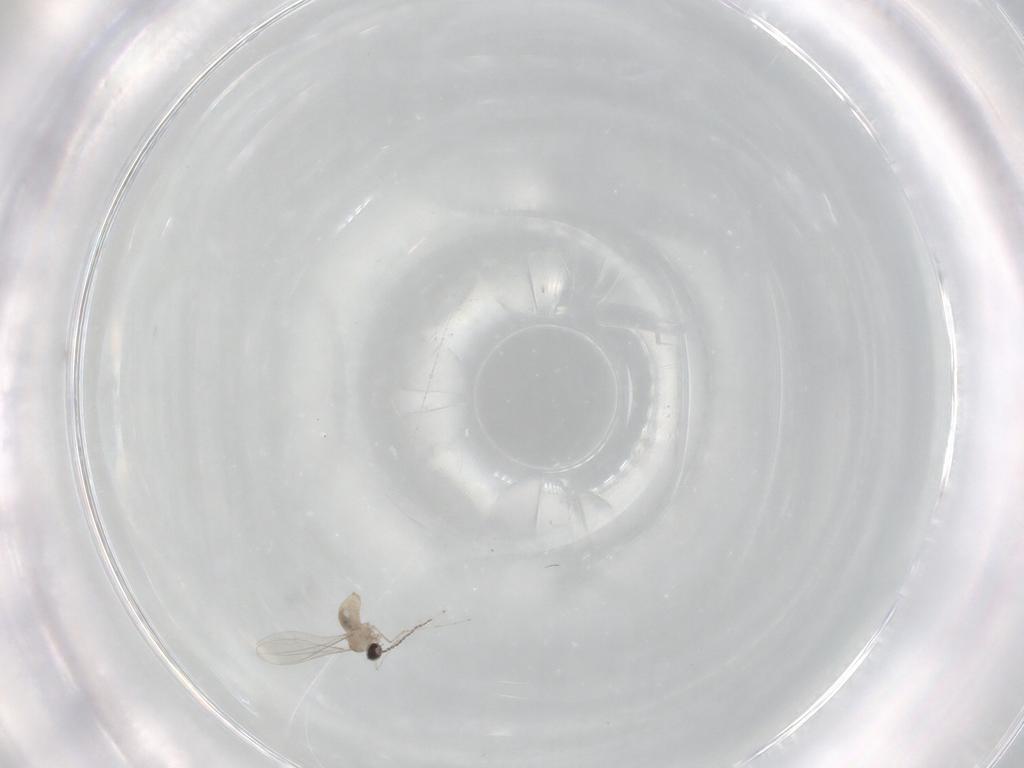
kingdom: Animalia
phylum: Arthropoda
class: Insecta
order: Diptera
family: Cecidomyiidae
